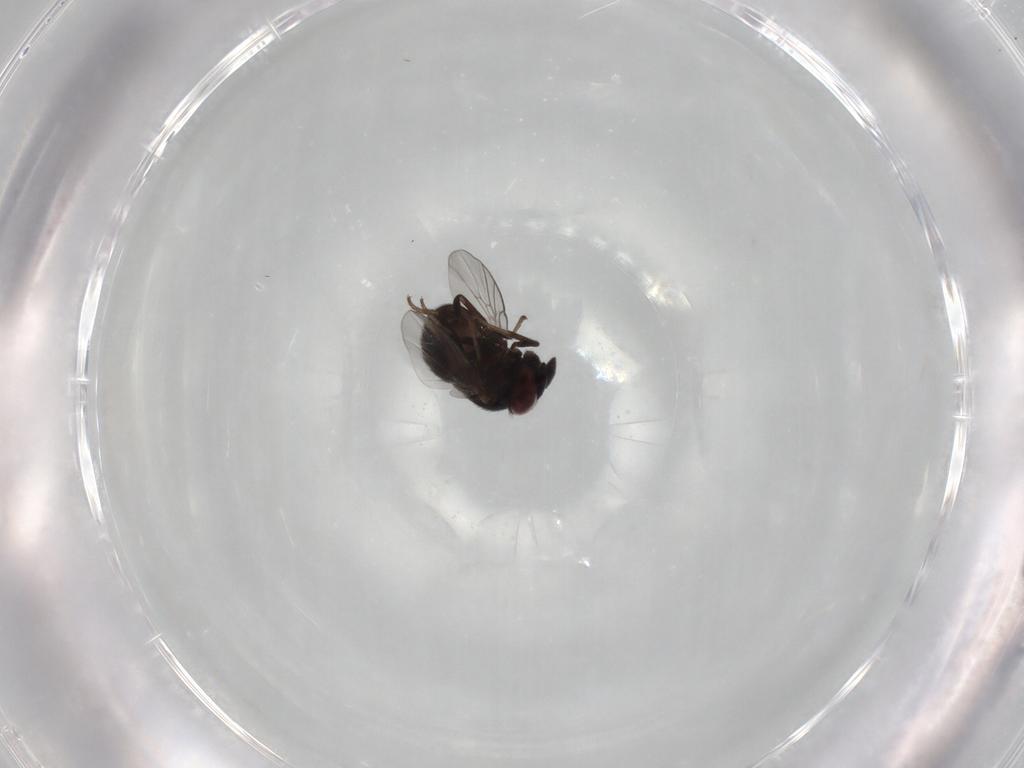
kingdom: Animalia
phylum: Arthropoda
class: Insecta
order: Diptera
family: Cryptochetidae
